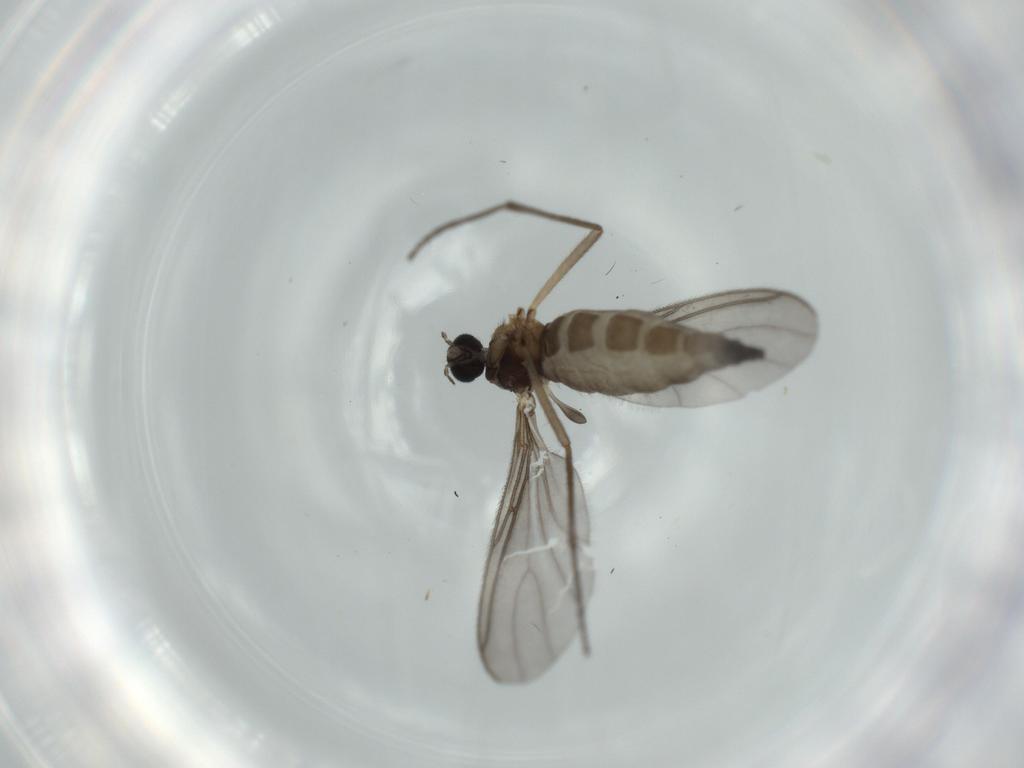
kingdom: Animalia
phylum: Arthropoda
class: Insecta
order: Diptera
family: Sciaridae
